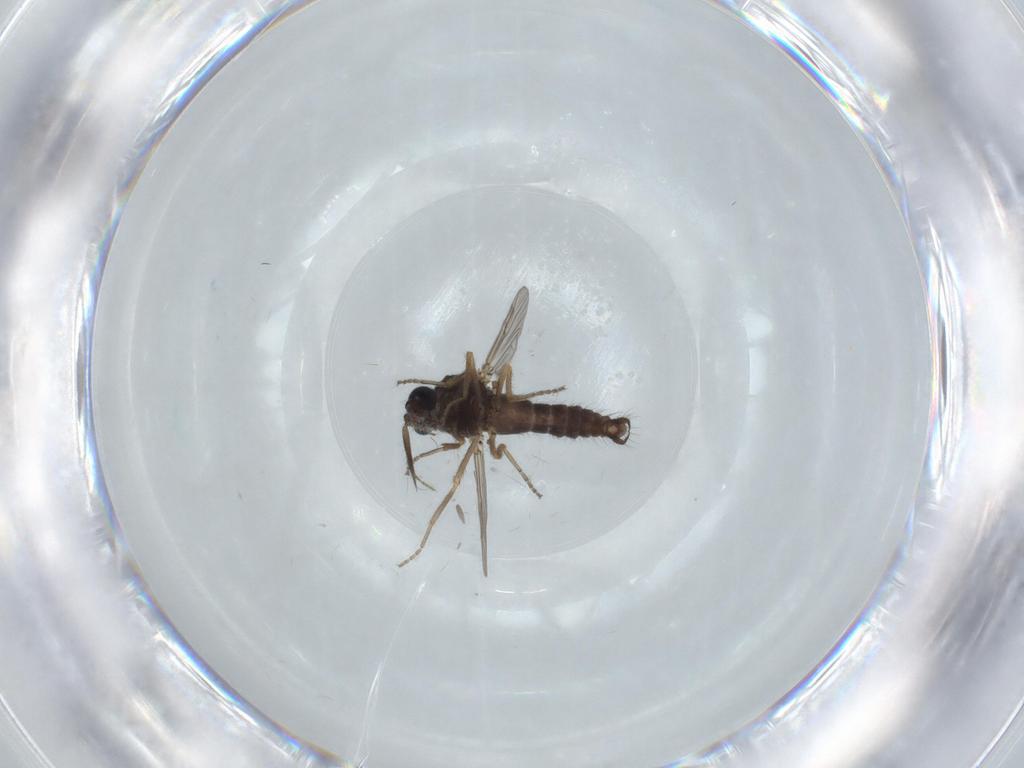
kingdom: Animalia
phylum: Arthropoda
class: Insecta
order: Diptera
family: Ceratopogonidae
